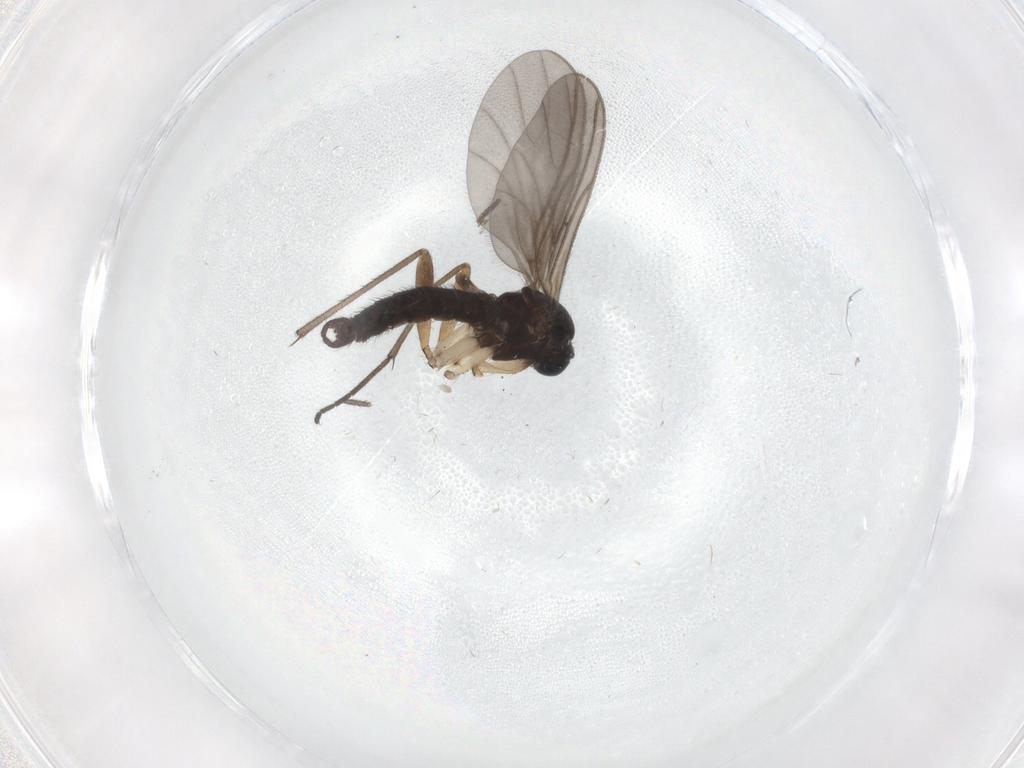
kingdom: Animalia
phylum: Arthropoda
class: Insecta
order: Diptera
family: Sciaridae
